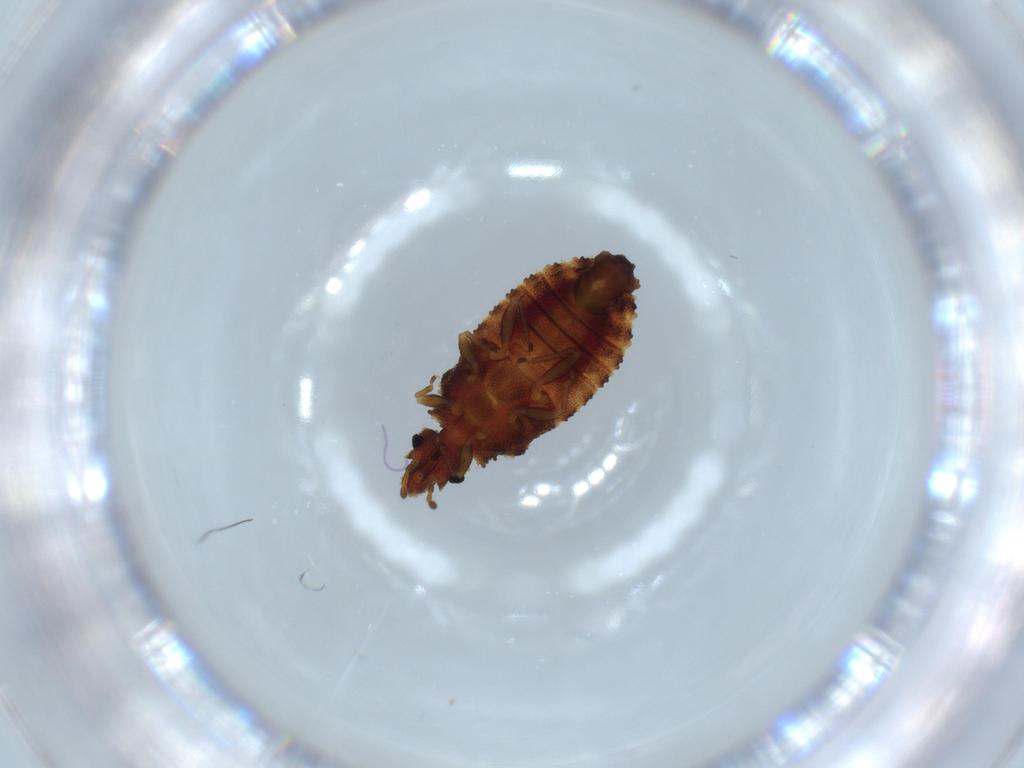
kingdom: Animalia
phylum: Arthropoda
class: Insecta
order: Hemiptera
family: Aradidae
